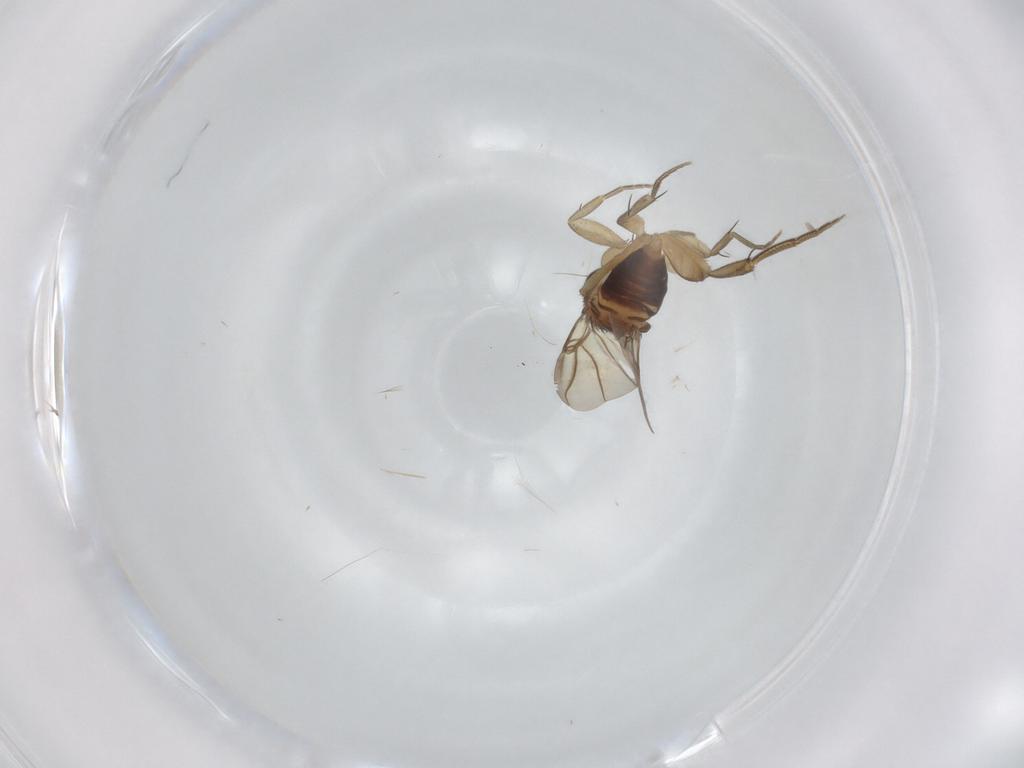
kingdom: Animalia
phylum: Arthropoda
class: Insecta
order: Diptera
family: Phoridae
